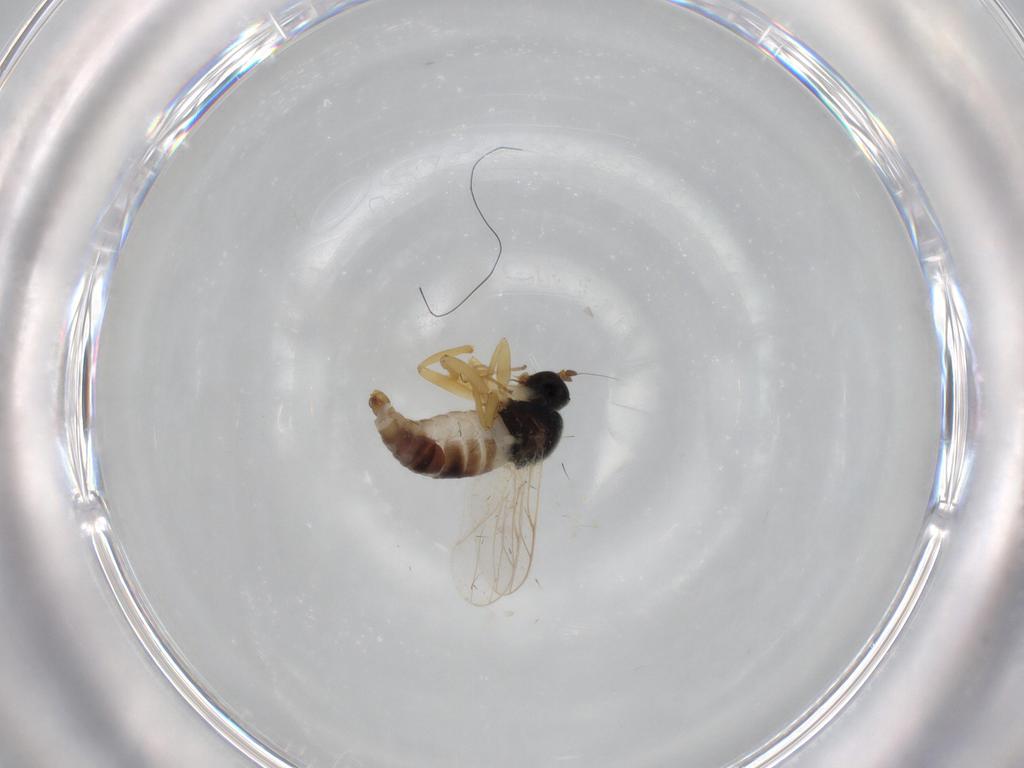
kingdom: Animalia
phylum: Arthropoda
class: Insecta
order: Diptera
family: Hybotidae
